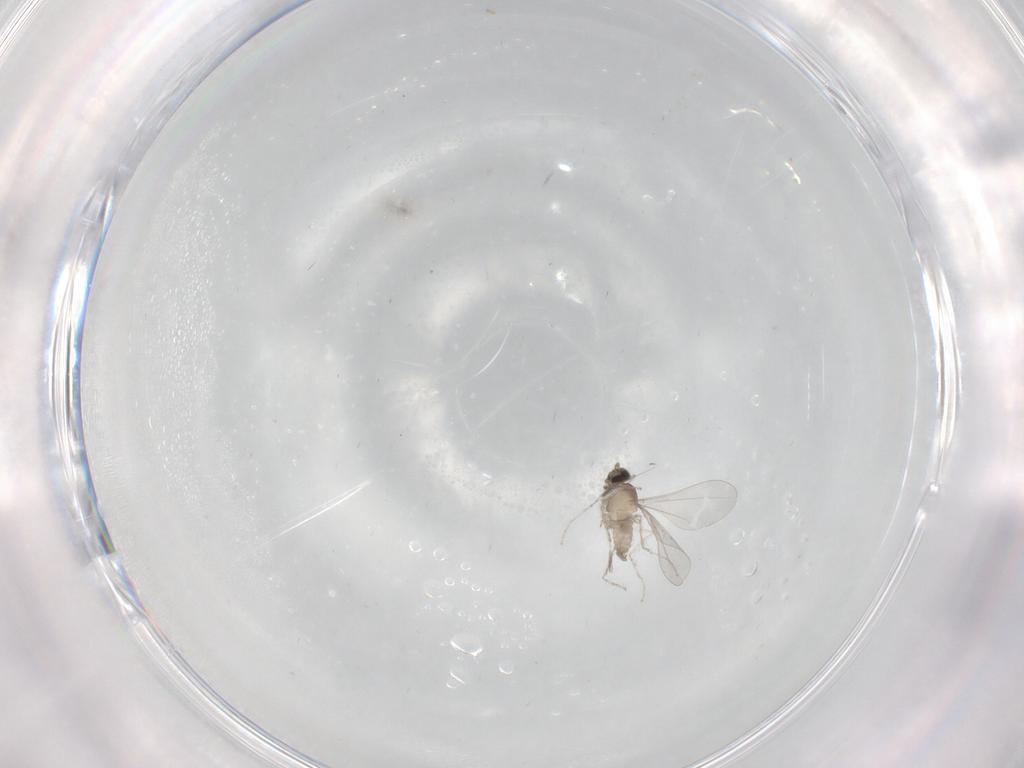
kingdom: Animalia
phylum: Arthropoda
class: Insecta
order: Diptera
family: Cecidomyiidae
